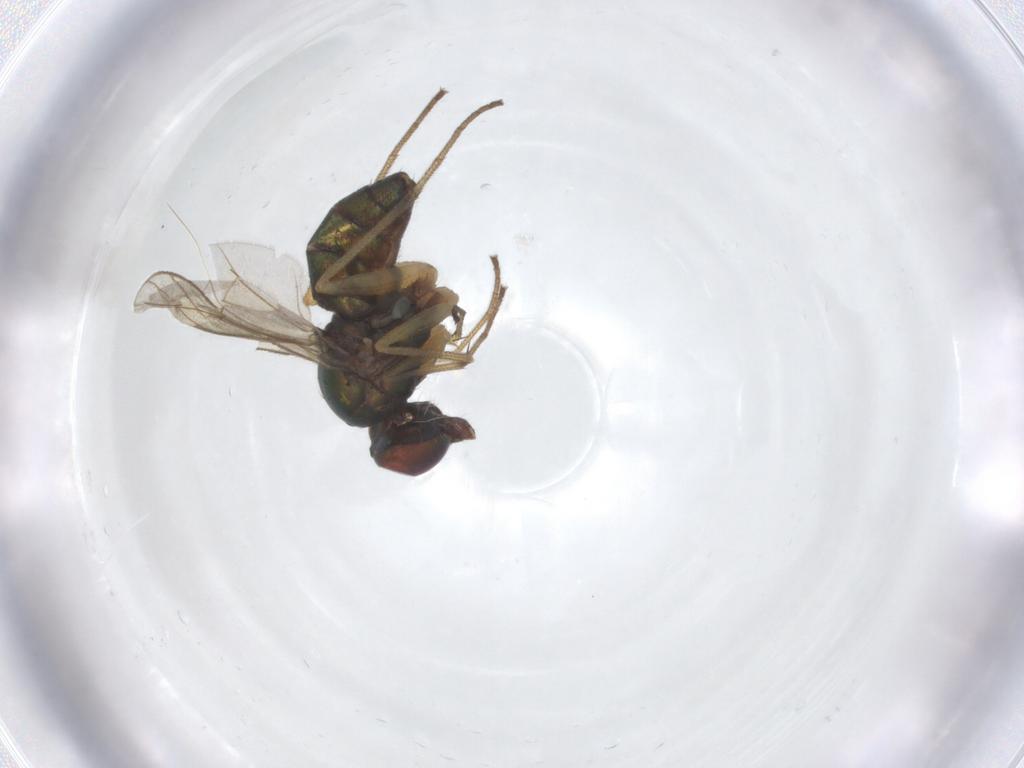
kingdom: Animalia
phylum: Arthropoda
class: Insecta
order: Diptera
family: Dolichopodidae
